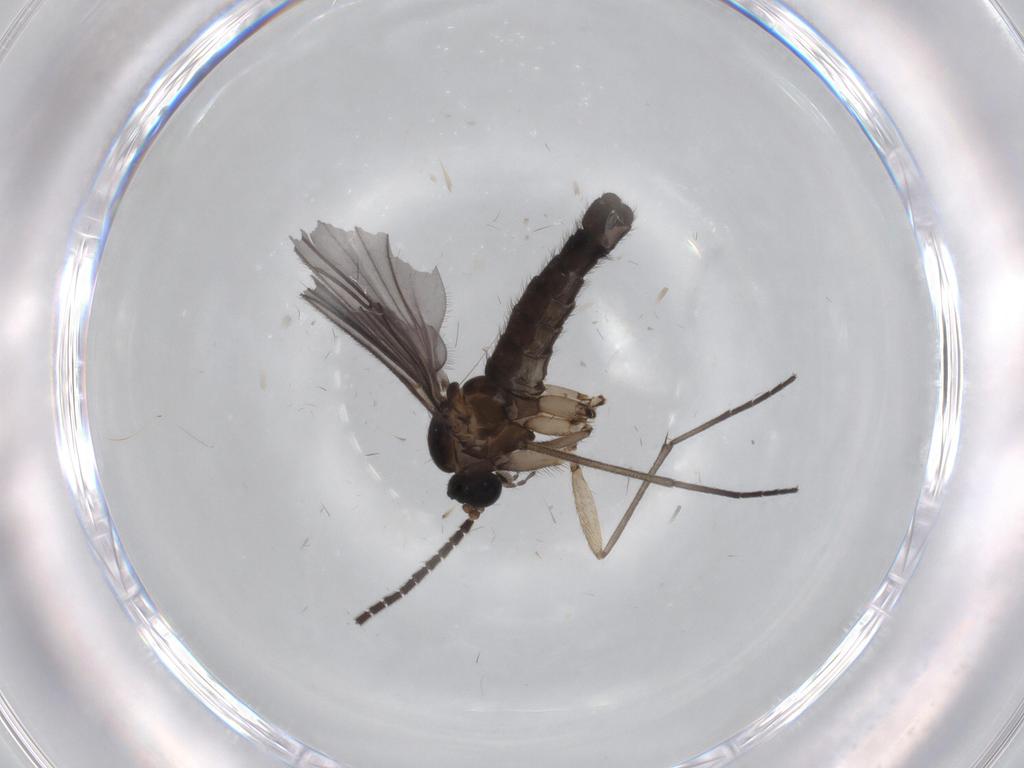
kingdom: Animalia
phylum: Arthropoda
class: Insecta
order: Diptera
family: Sciaridae
